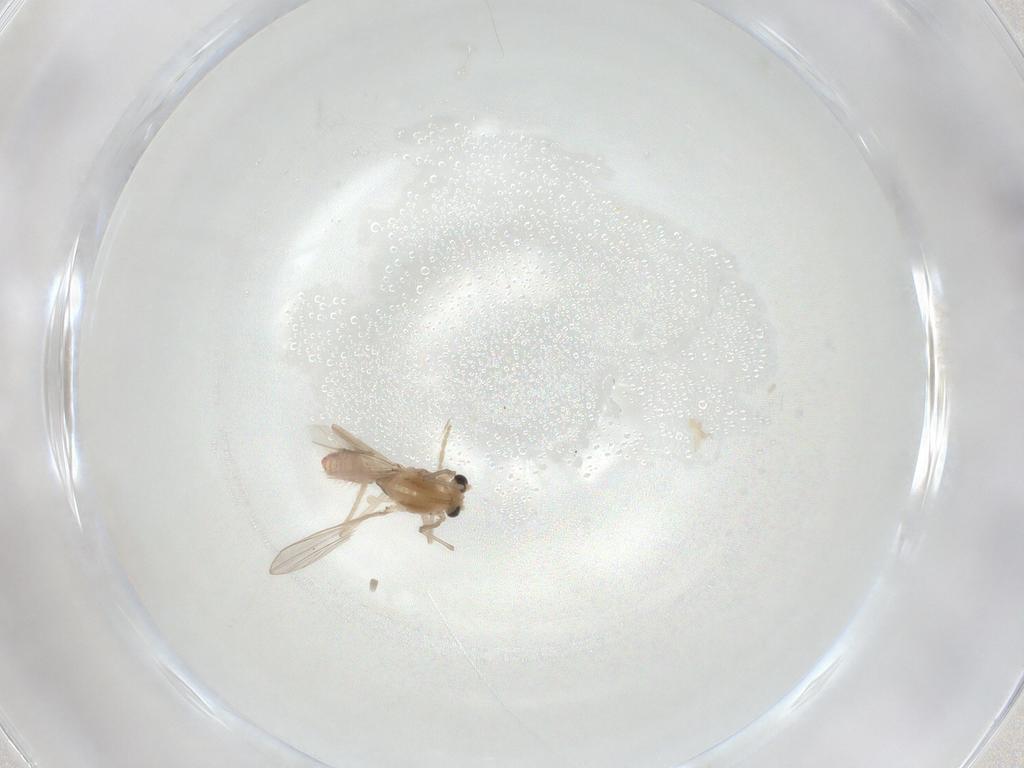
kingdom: Animalia
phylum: Arthropoda
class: Insecta
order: Diptera
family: Chironomidae
